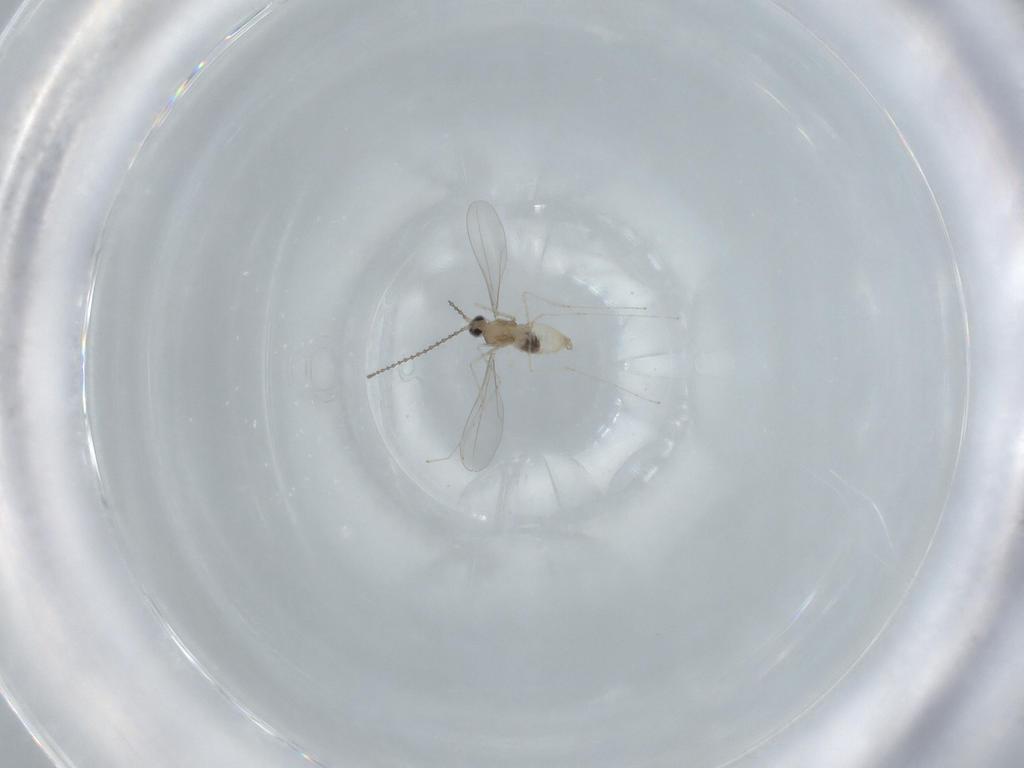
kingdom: Animalia
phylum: Arthropoda
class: Insecta
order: Diptera
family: Cecidomyiidae
